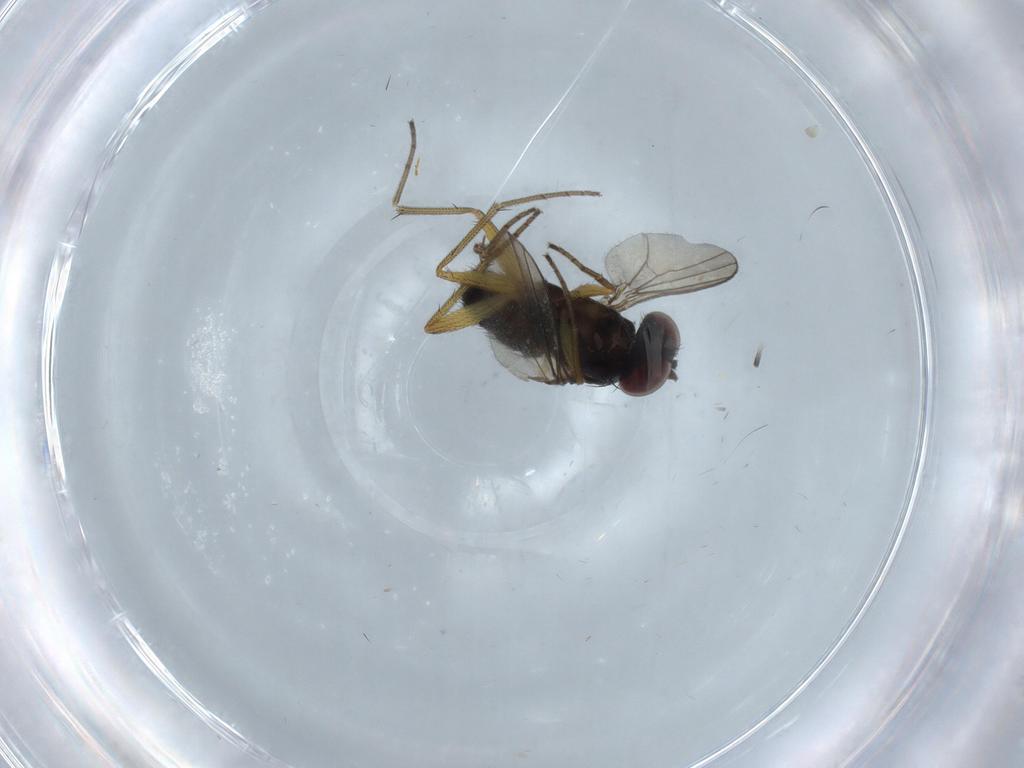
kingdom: Animalia
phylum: Arthropoda
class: Insecta
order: Diptera
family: Dolichopodidae
